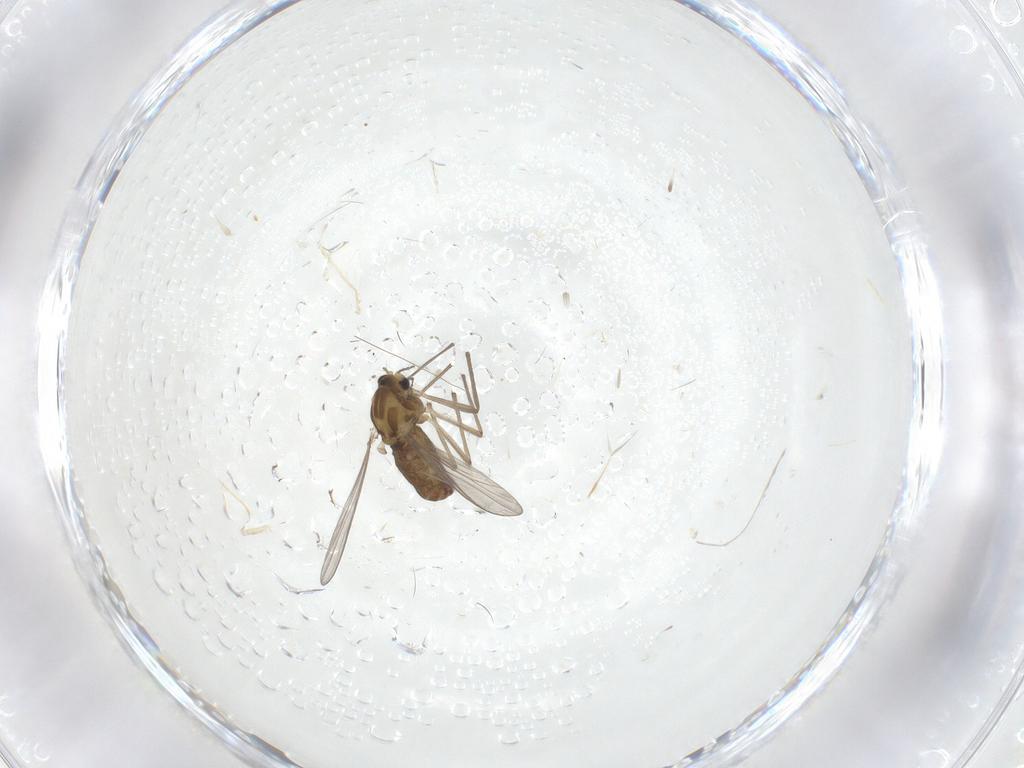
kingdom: Animalia
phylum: Arthropoda
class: Insecta
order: Diptera
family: Chironomidae
